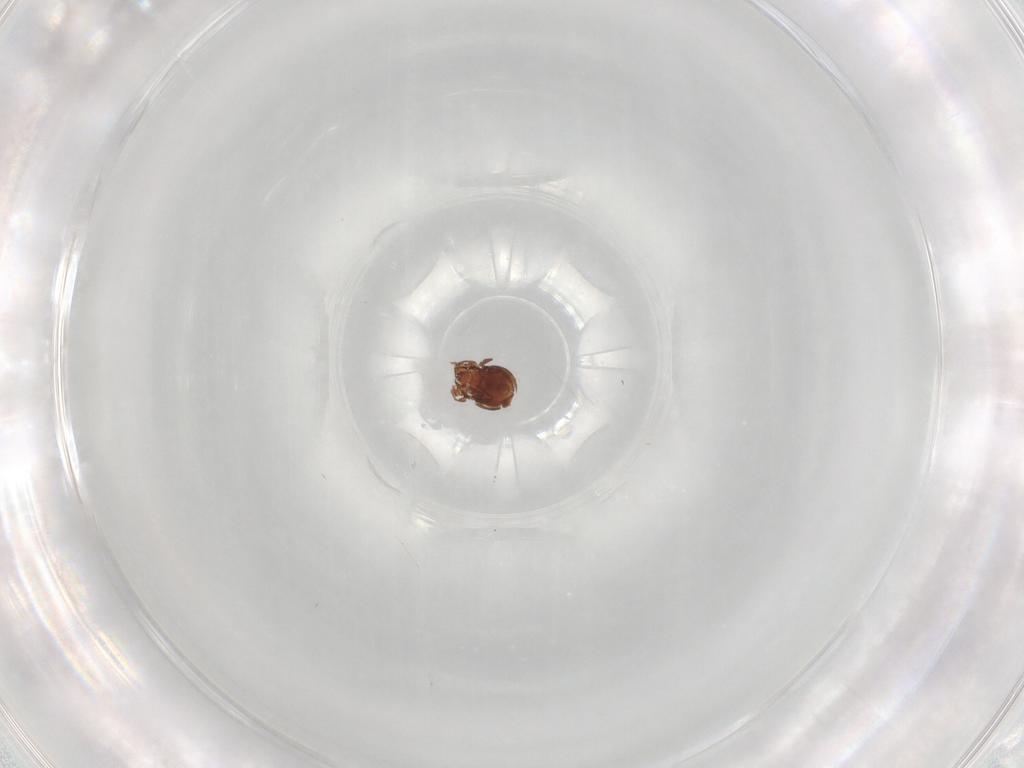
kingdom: Animalia
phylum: Arthropoda
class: Arachnida
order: Sarcoptiformes
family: Scheloribatidae
